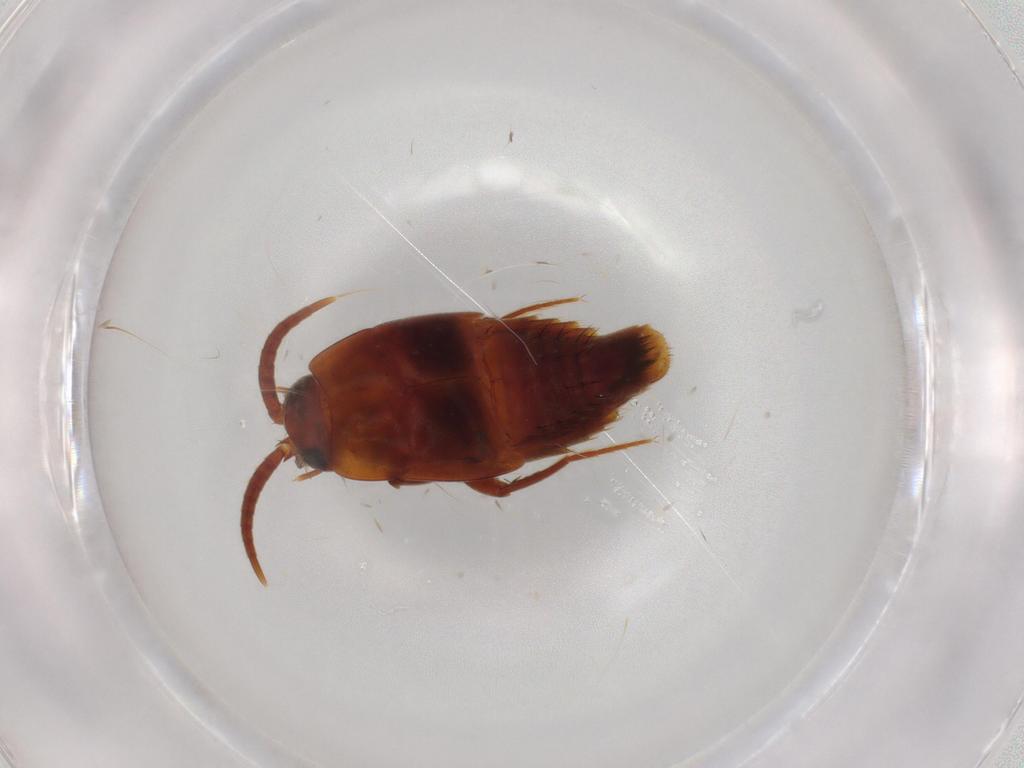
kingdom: Animalia
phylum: Arthropoda
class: Insecta
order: Coleoptera
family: Staphylinidae
